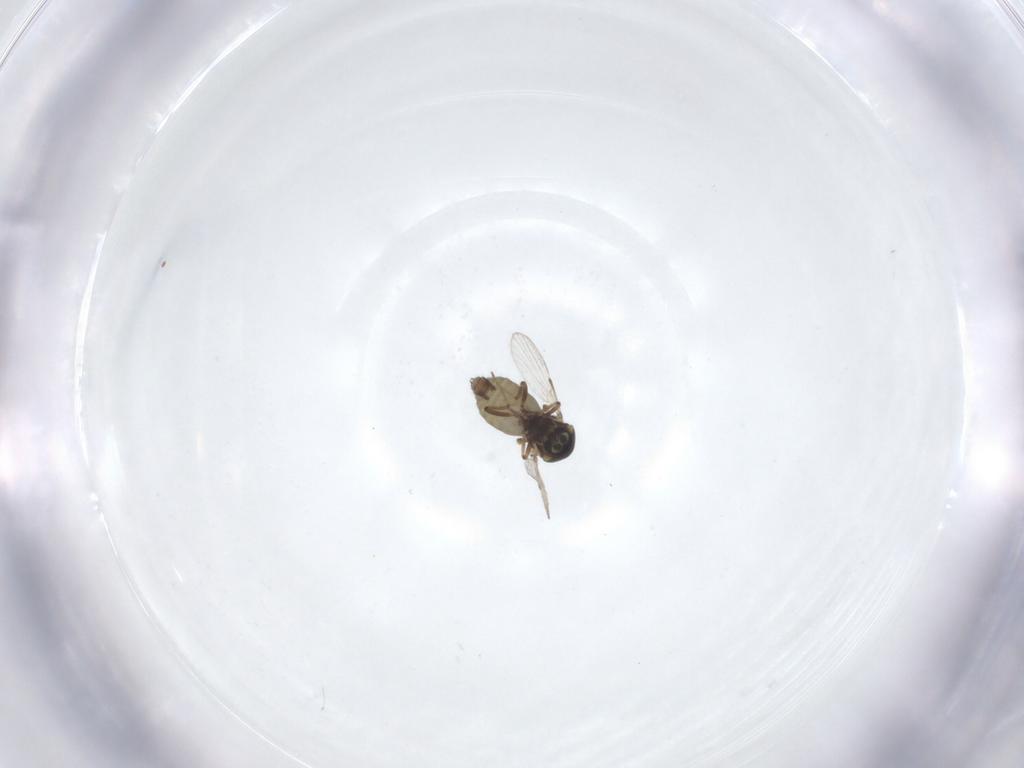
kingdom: Animalia
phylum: Arthropoda
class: Insecta
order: Diptera
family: Ceratopogonidae
